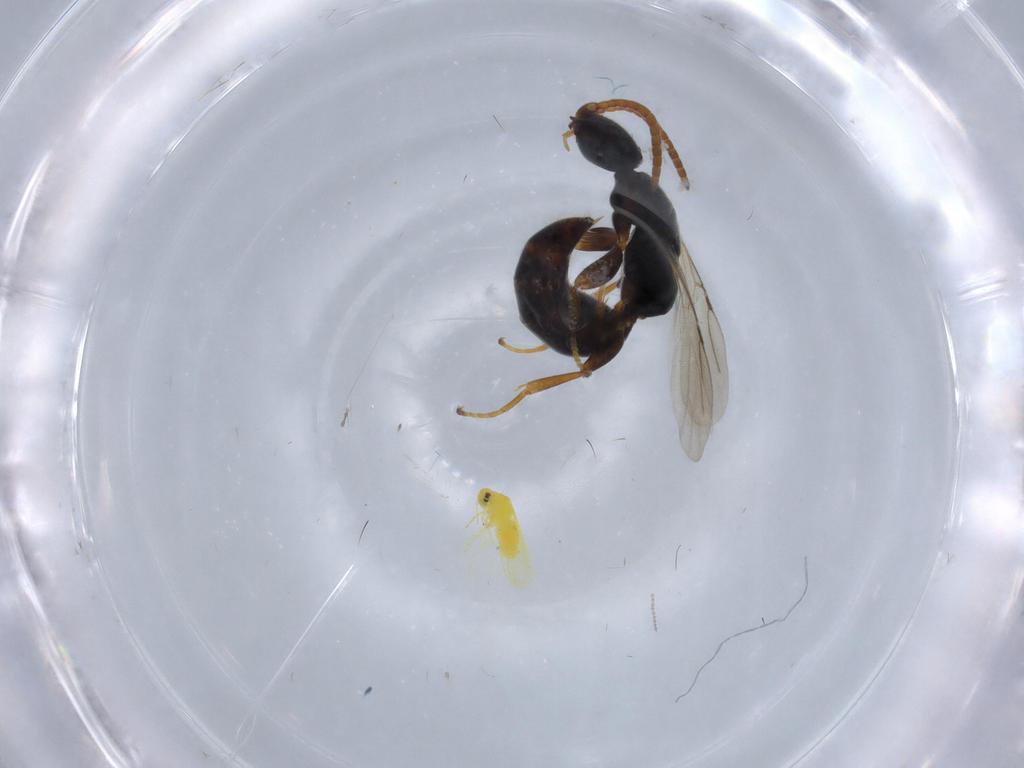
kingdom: Animalia
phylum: Arthropoda
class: Insecta
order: Hymenoptera
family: Bethylidae
